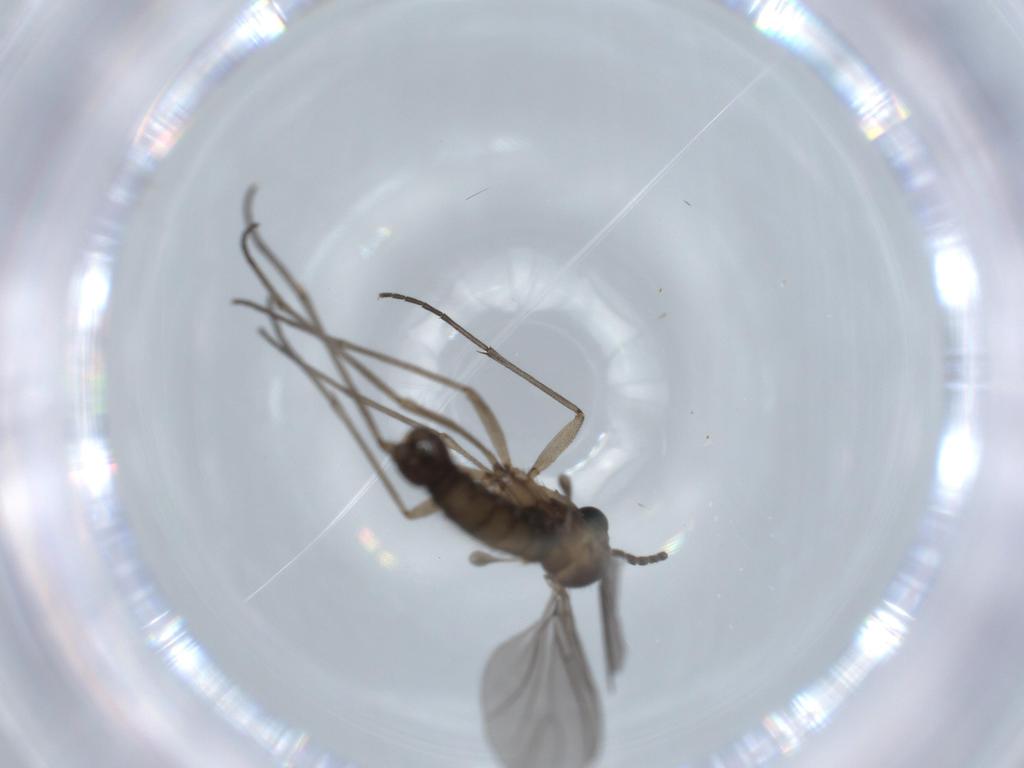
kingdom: Animalia
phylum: Arthropoda
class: Insecta
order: Diptera
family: Sciaridae
